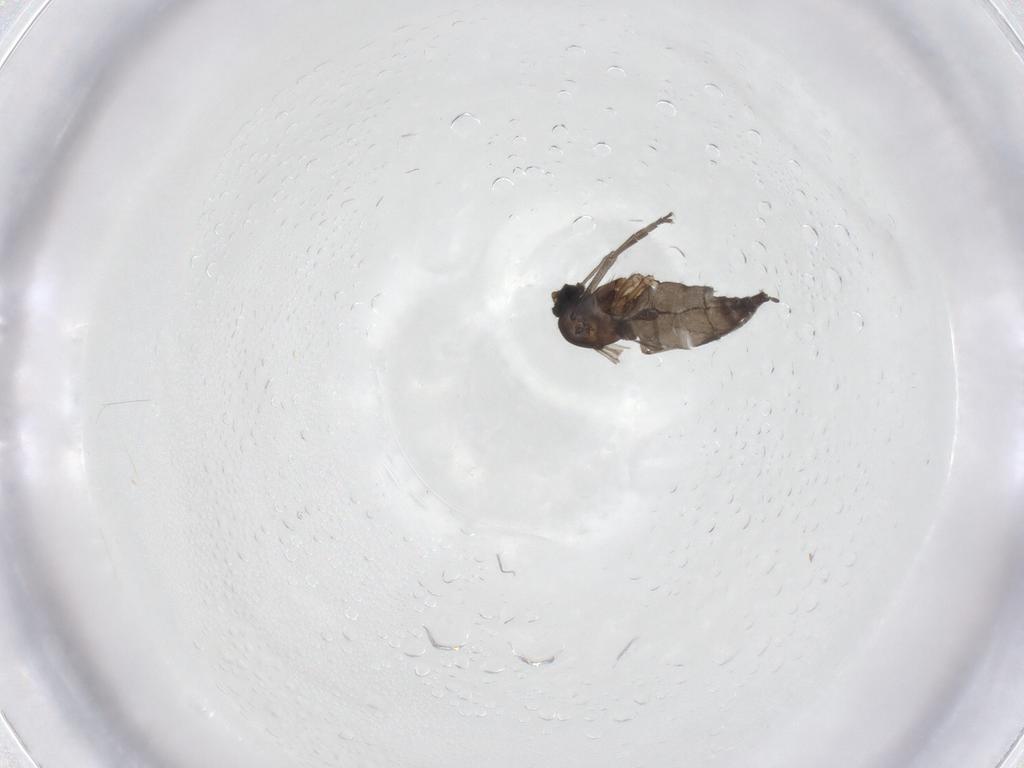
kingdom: Animalia
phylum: Arthropoda
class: Insecta
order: Diptera
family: Sciaridae
